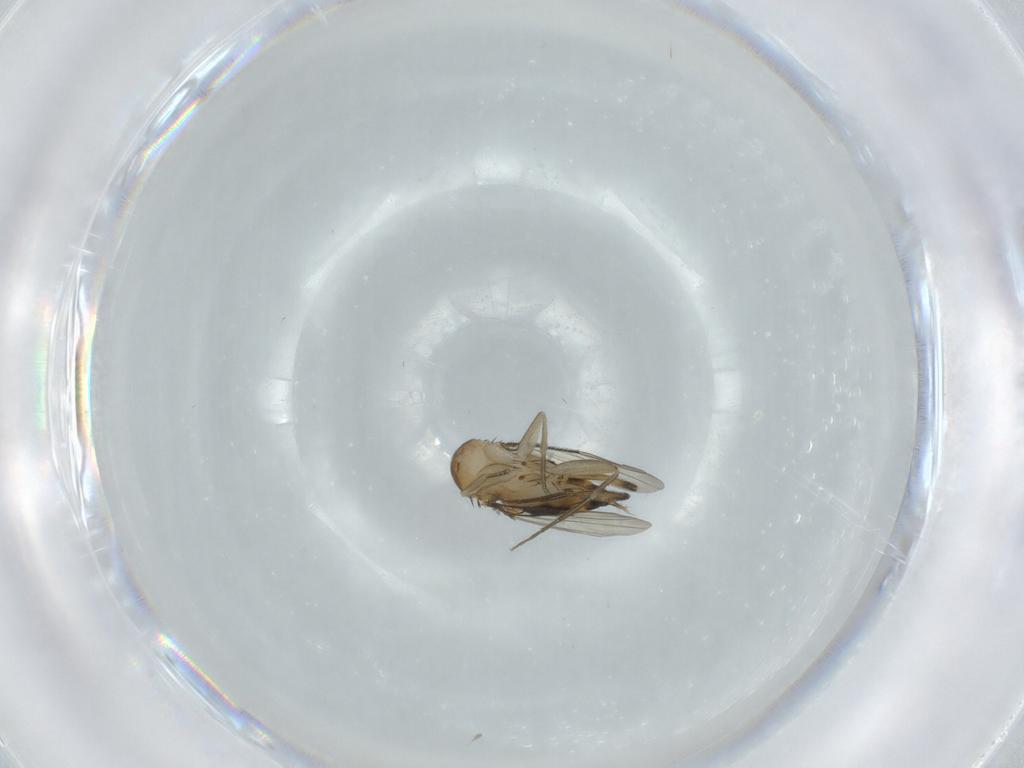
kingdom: Animalia
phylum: Arthropoda
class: Insecta
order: Diptera
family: Phoridae
